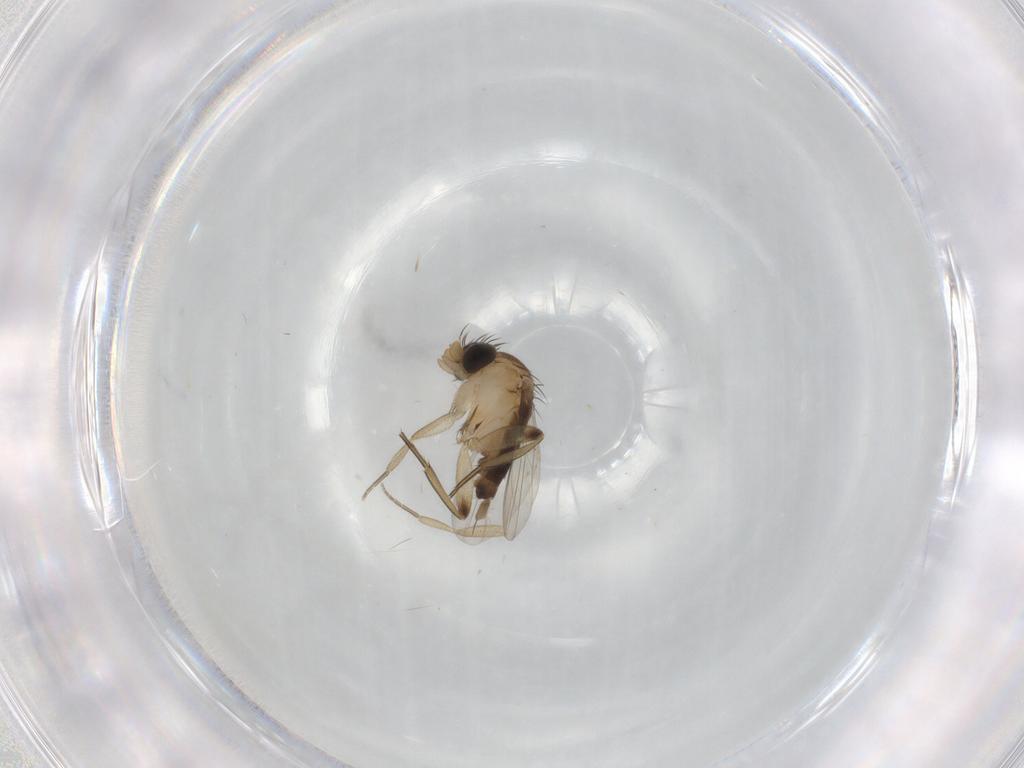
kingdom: Animalia
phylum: Arthropoda
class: Insecta
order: Diptera
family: Phoridae
